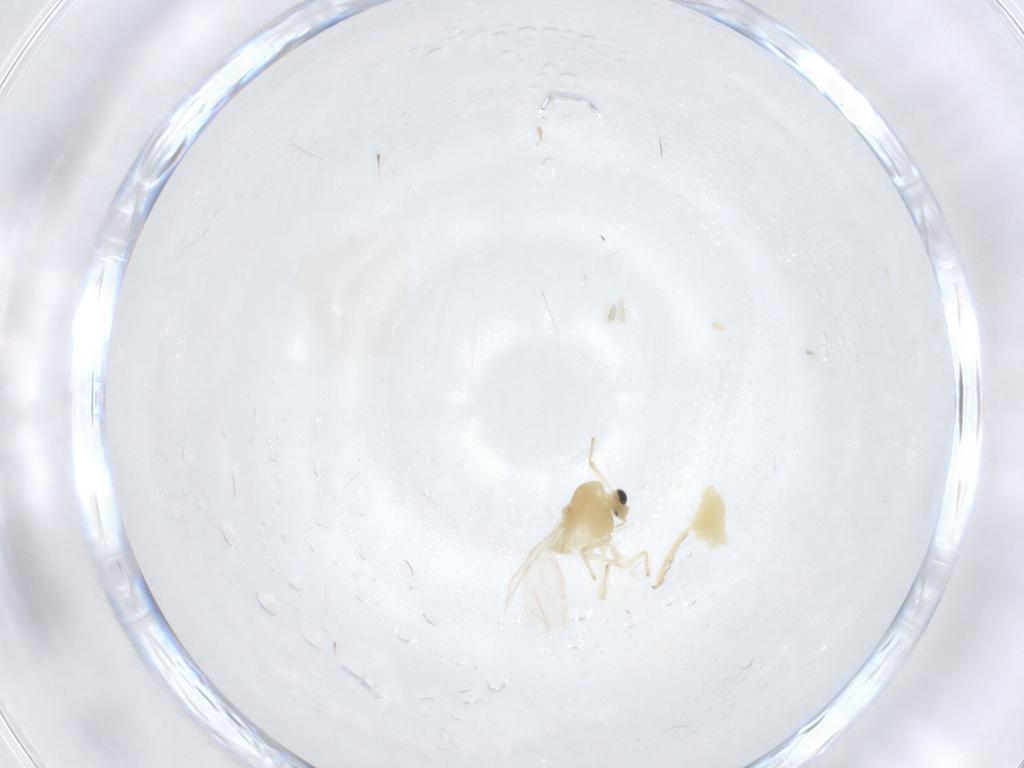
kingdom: Animalia
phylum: Arthropoda
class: Insecta
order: Diptera
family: Chironomidae
